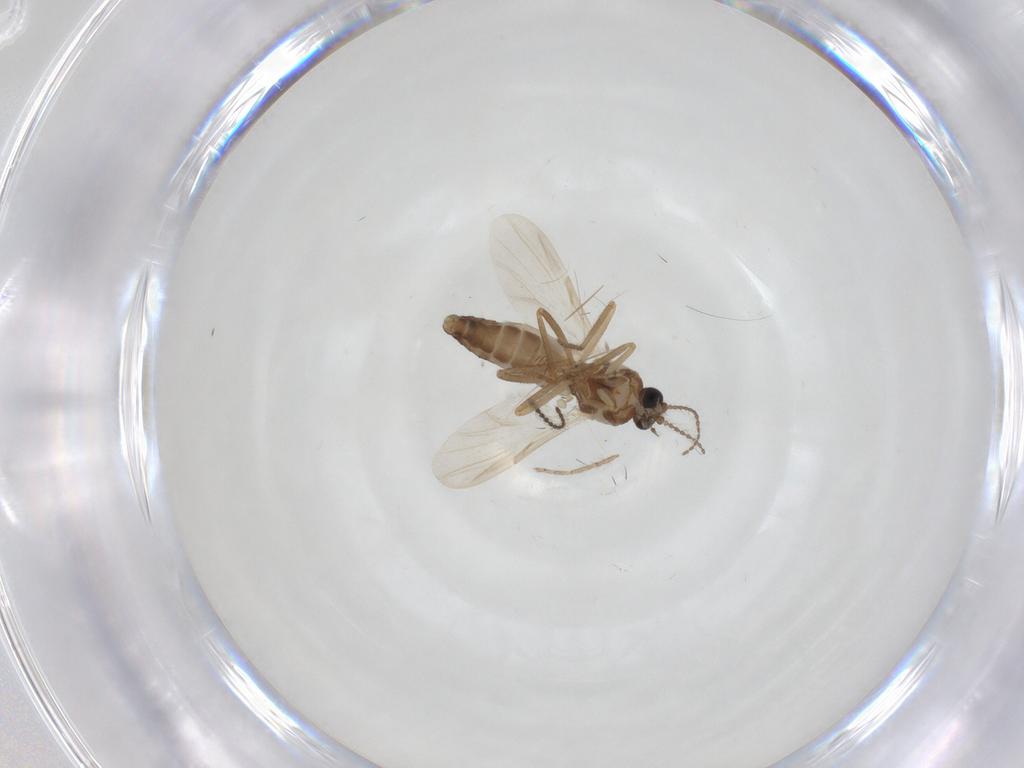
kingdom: Animalia
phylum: Arthropoda
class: Insecta
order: Diptera
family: Ceratopogonidae
